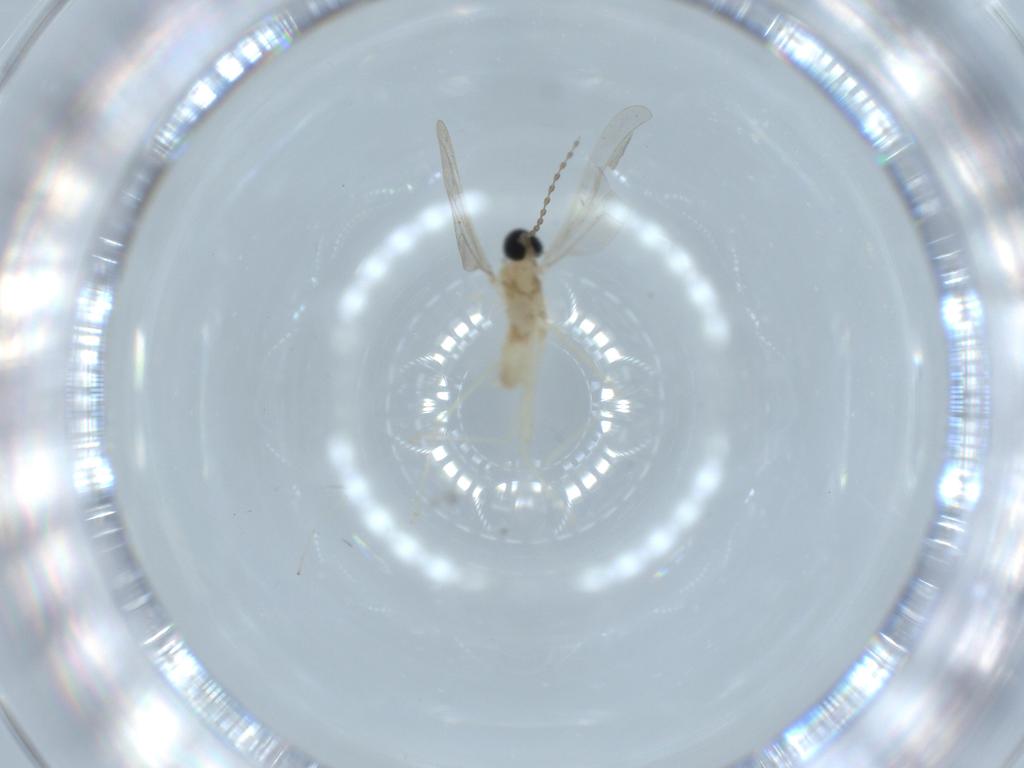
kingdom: Animalia
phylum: Arthropoda
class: Insecta
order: Diptera
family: Cecidomyiidae
